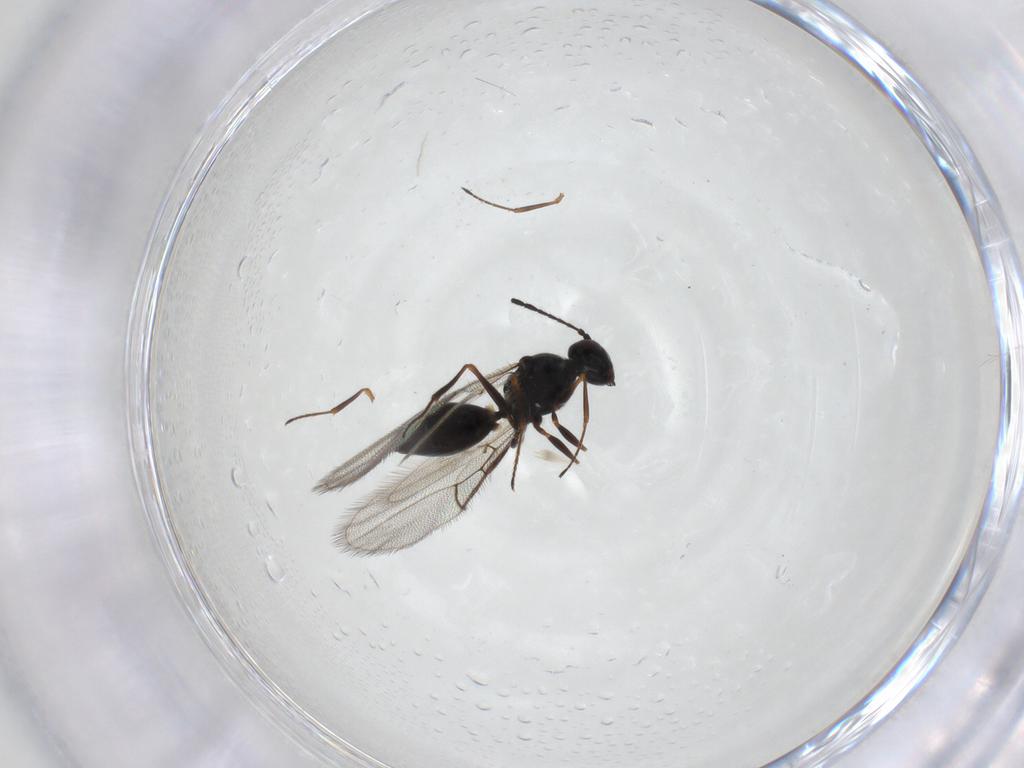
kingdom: Animalia
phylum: Arthropoda
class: Insecta
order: Hymenoptera
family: Figitidae
